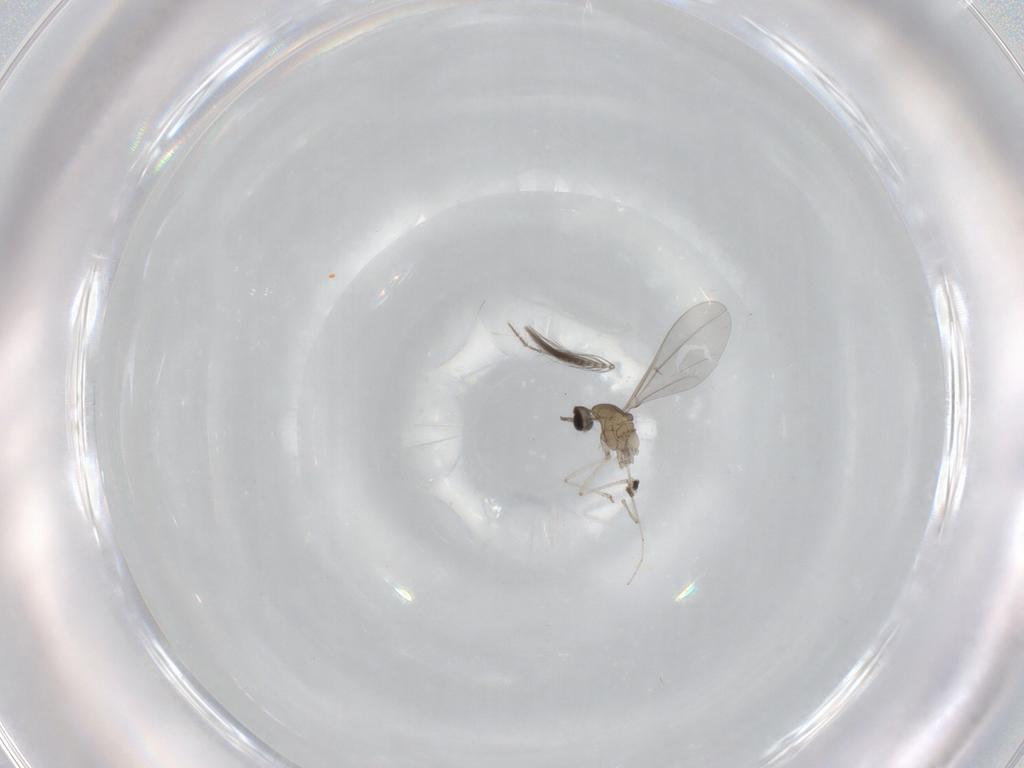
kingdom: Animalia
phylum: Arthropoda
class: Insecta
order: Diptera
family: Cecidomyiidae
